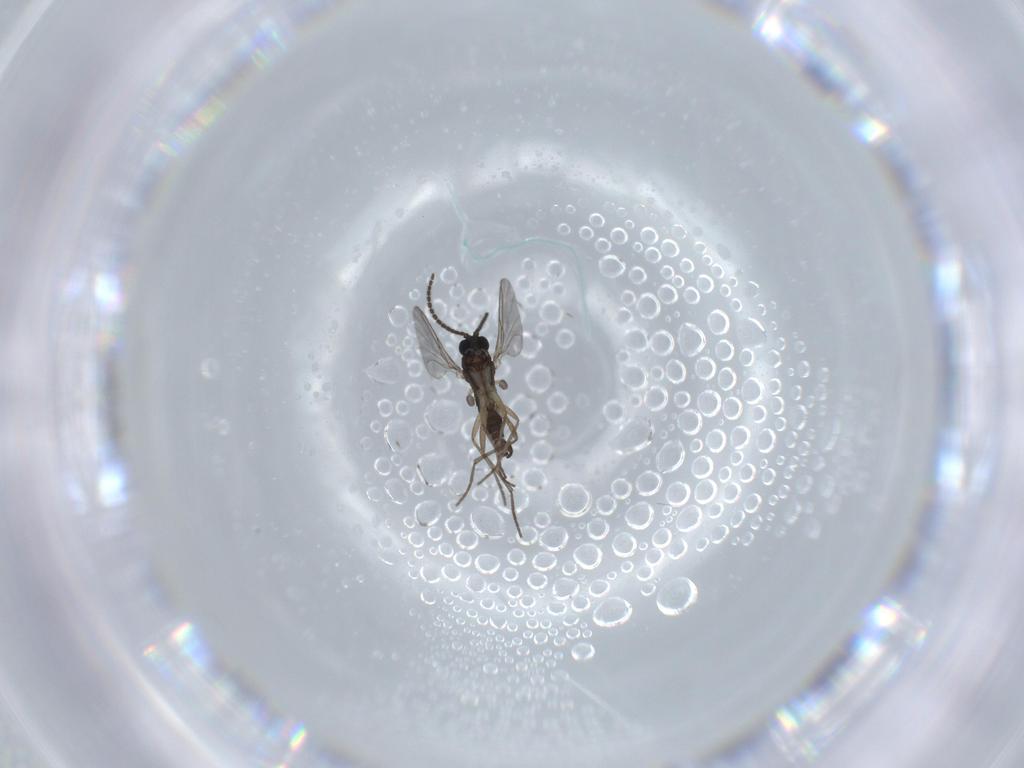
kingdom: Animalia
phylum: Arthropoda
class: Insecta
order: Diptera
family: Sciaridae
